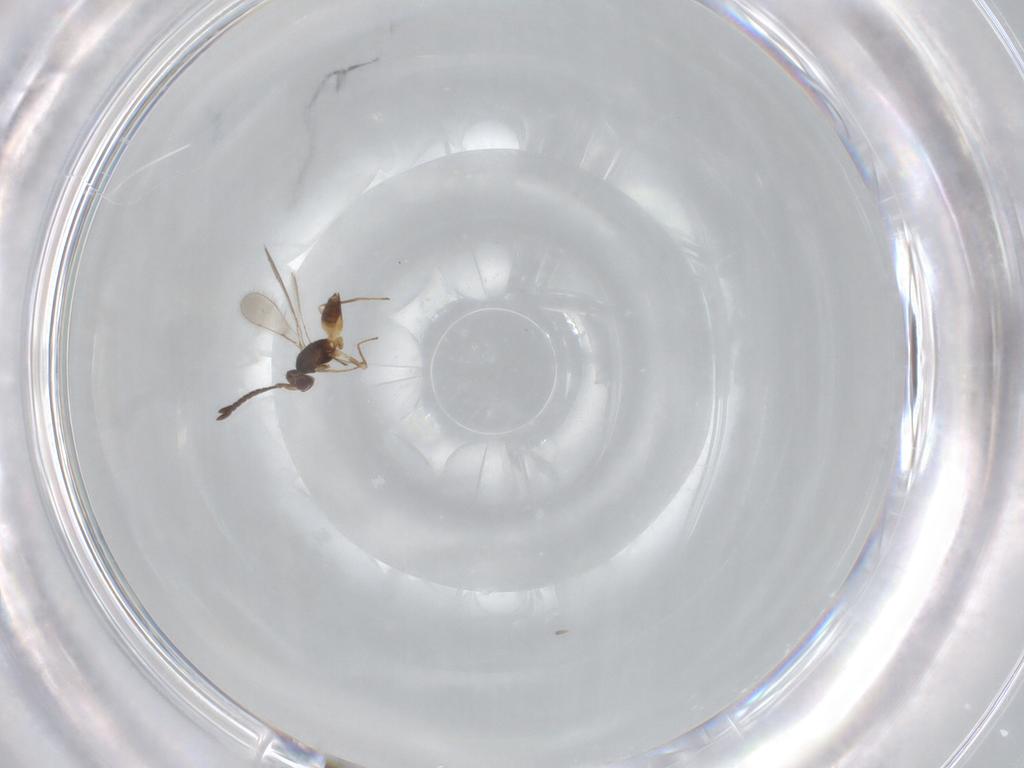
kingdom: Animalia
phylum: Arthropoda
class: Insecta
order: Hymenoptera
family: Mymaridae
